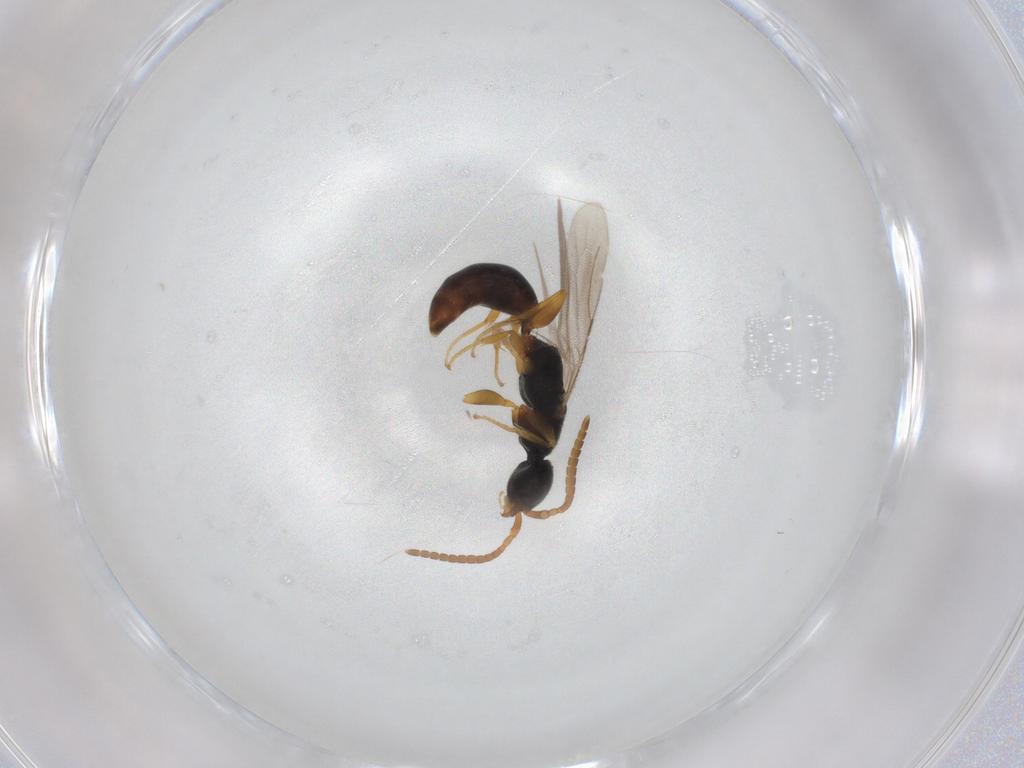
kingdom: Animalia
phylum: Arthropoda
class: Insecta
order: Hymenoptera
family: Bethylidae
